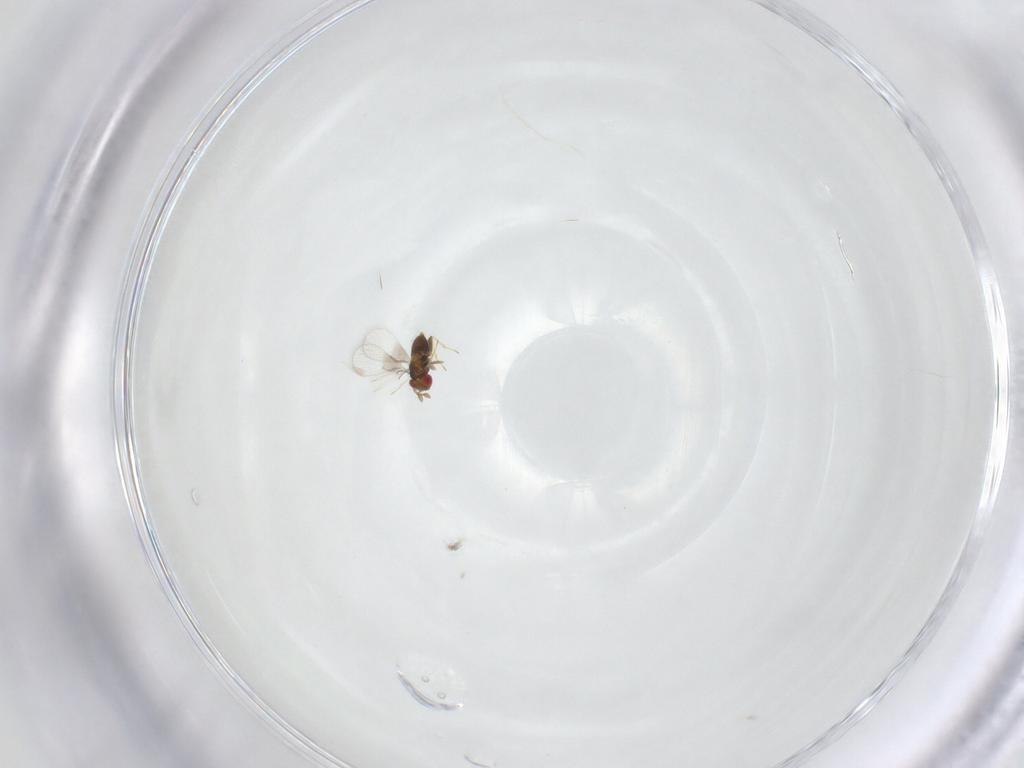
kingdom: Animalia
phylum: Arthropoda
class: Insecta
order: Hymenoptera
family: Trichogrammatidae
